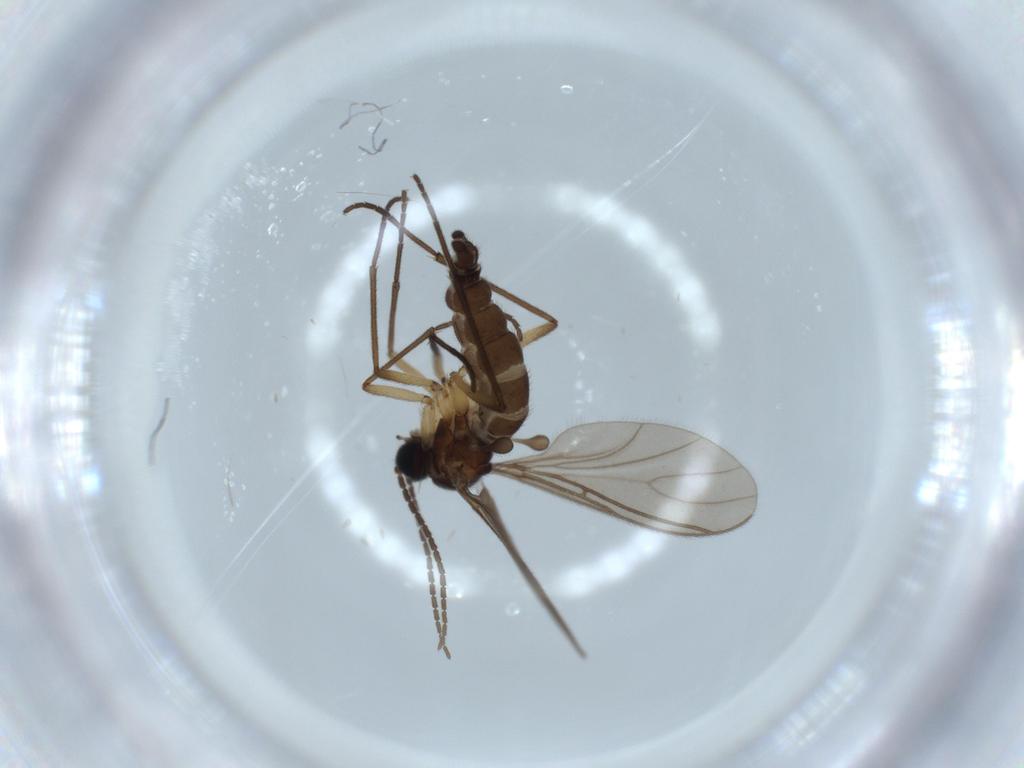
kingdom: Animalia
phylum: Arthropoda
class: Insecta
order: Diptera
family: Sciaridae
